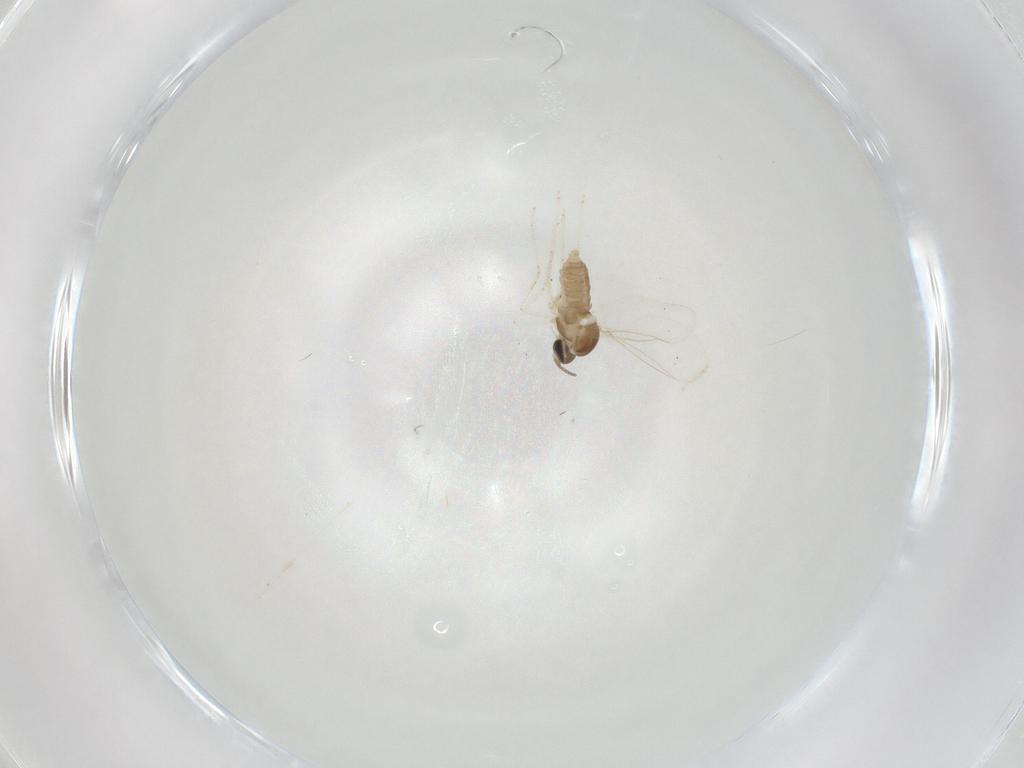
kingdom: Animalia
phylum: Arthropoda
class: Insecta
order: Diptera
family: Cecidomyiidae
